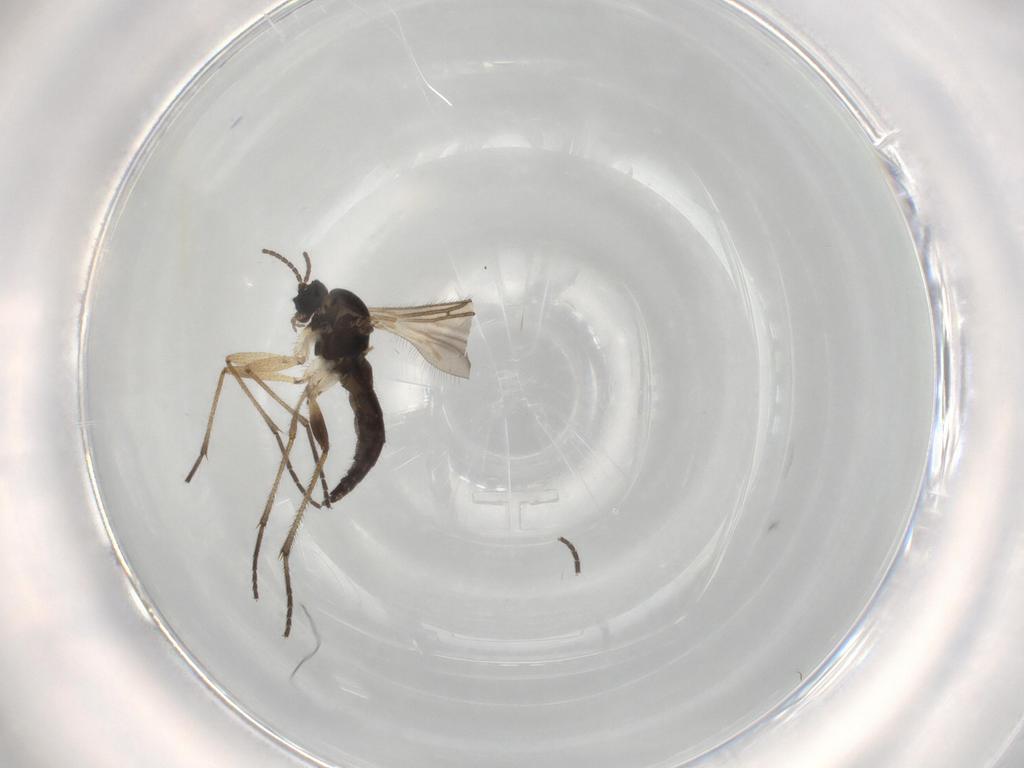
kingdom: Animalia
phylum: Arthropoda
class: Insecta
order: Diptera
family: Sciaridae
